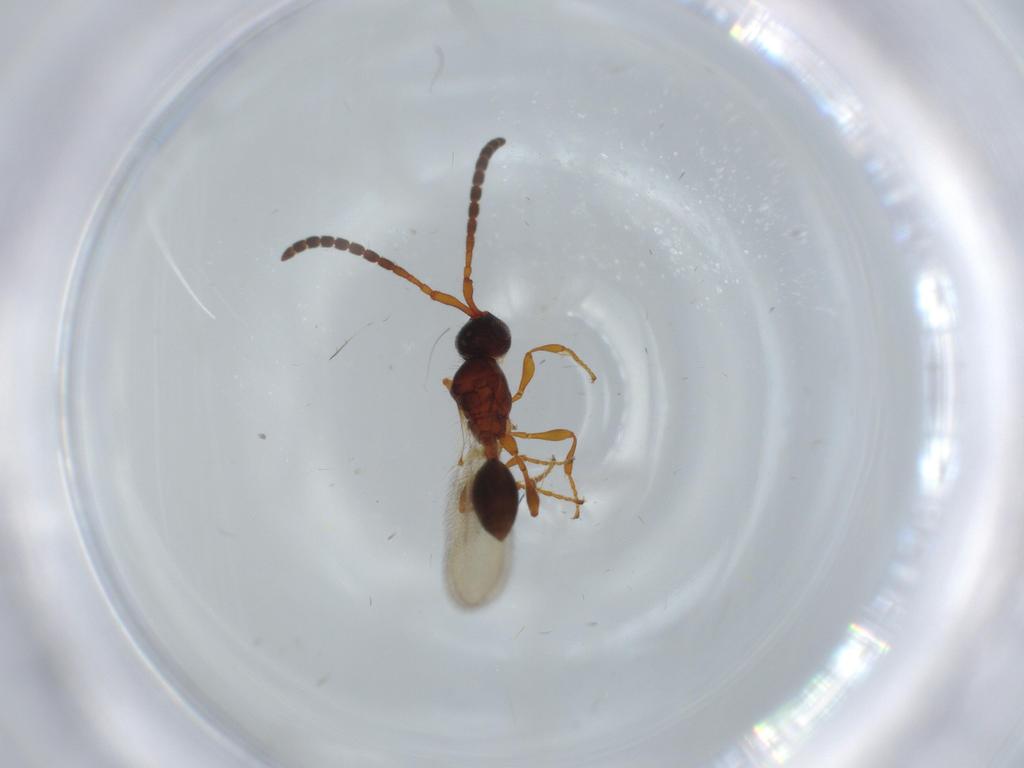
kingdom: Animalia
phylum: Arthropoda
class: Insecta
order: Hymenoptera
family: Diapriidae
